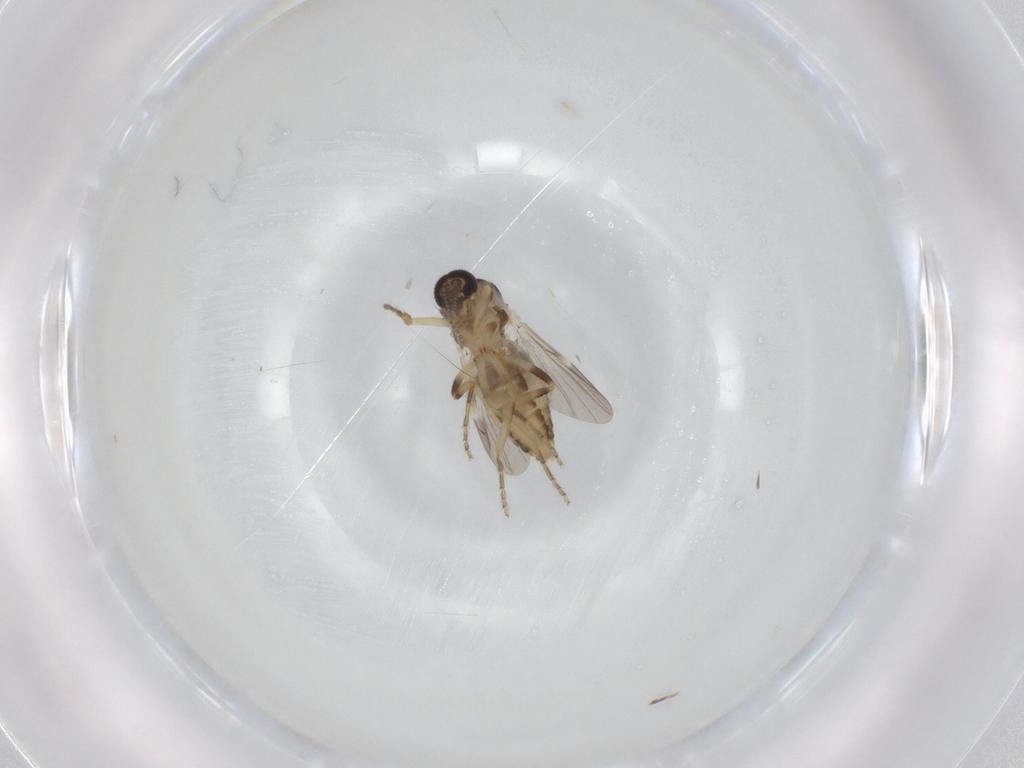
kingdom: Animalia
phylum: Arthropoda
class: Insecta
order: Diptera
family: Ceratopogonidae
